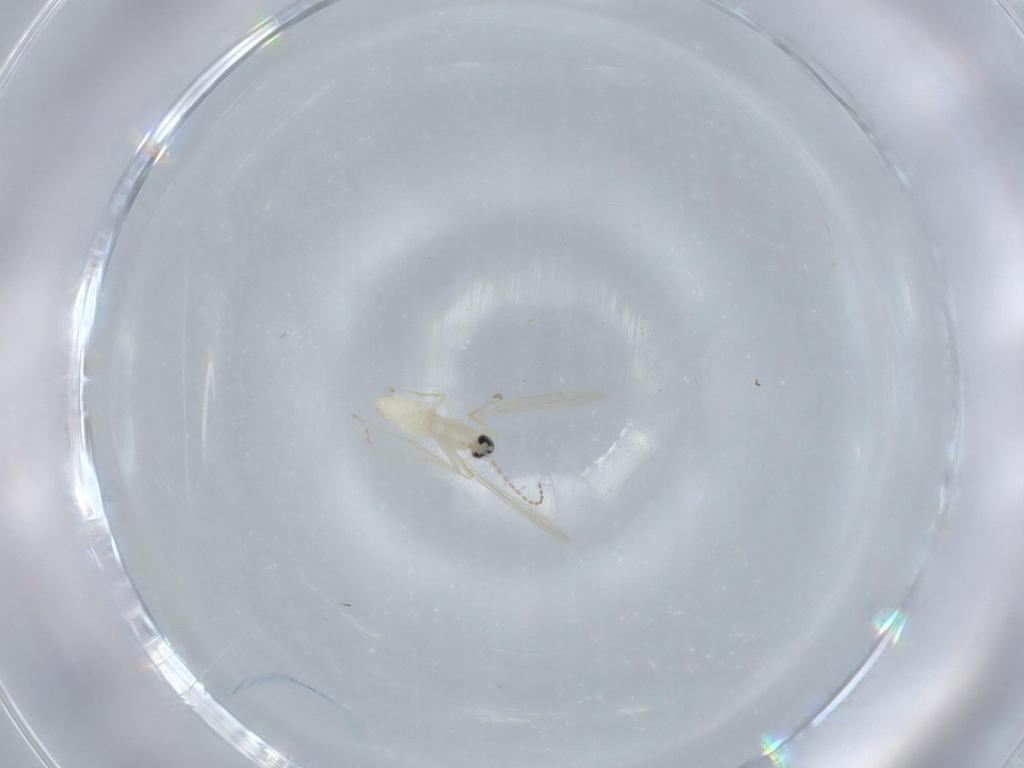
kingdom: Animalia
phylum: Arthropoda
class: Insecta
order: Diptera
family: Cecidomyiidae
